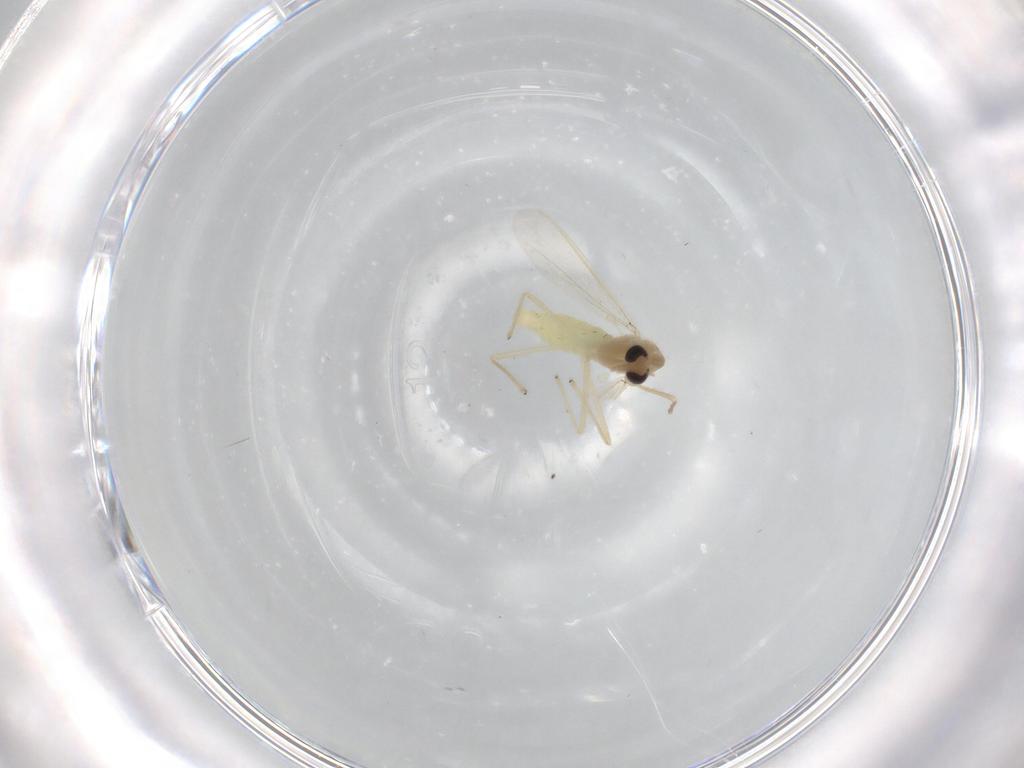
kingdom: Animalia
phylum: Arthropoda
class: Insecta
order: Diptera
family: Chironomidae
